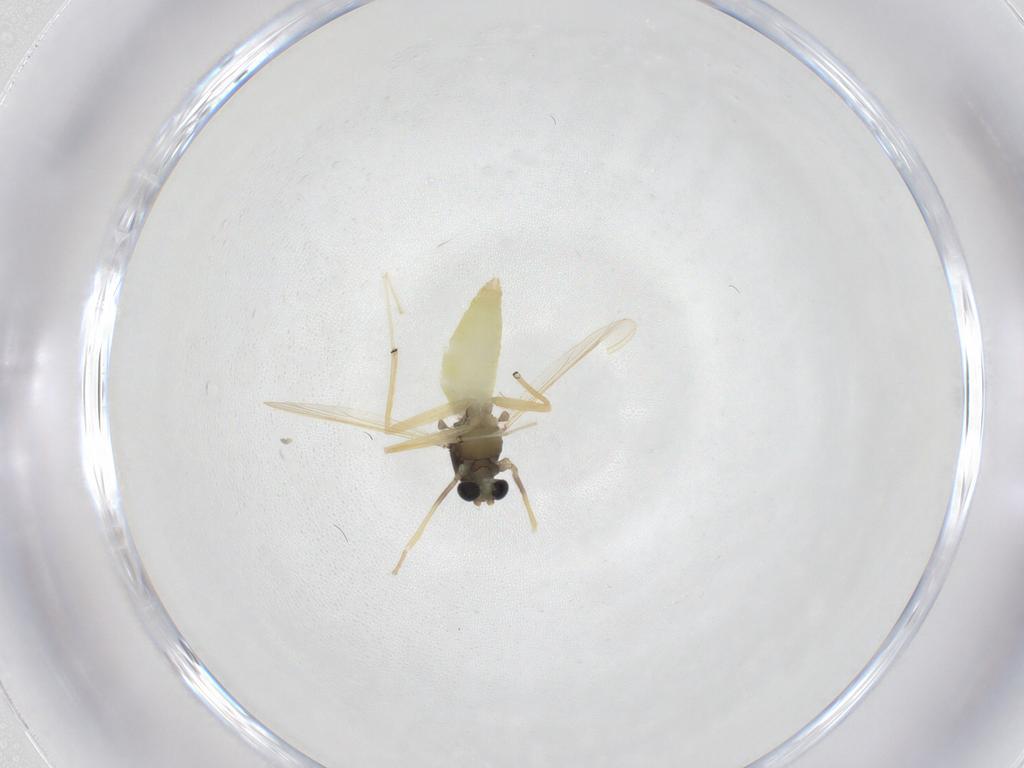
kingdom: Animalia
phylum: Arthropoda
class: Insecta
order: Diptera
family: Chironomidae
